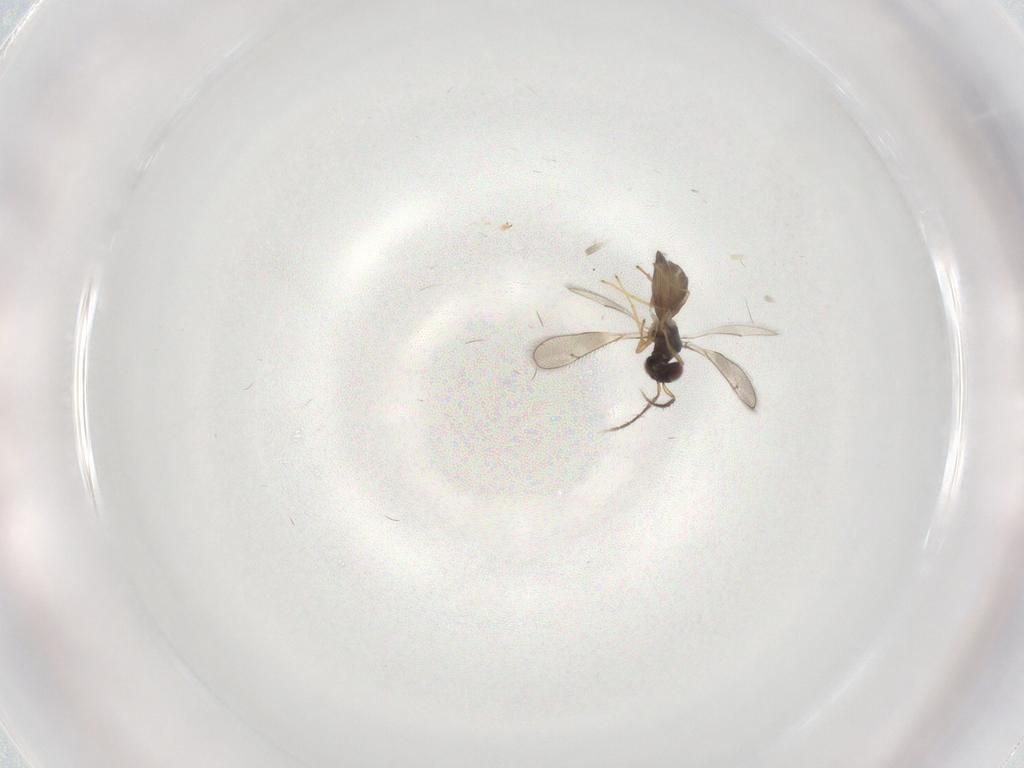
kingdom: Animalia
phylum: Arthropoda
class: Insecta
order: Hymenoptera
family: Eulophidae
